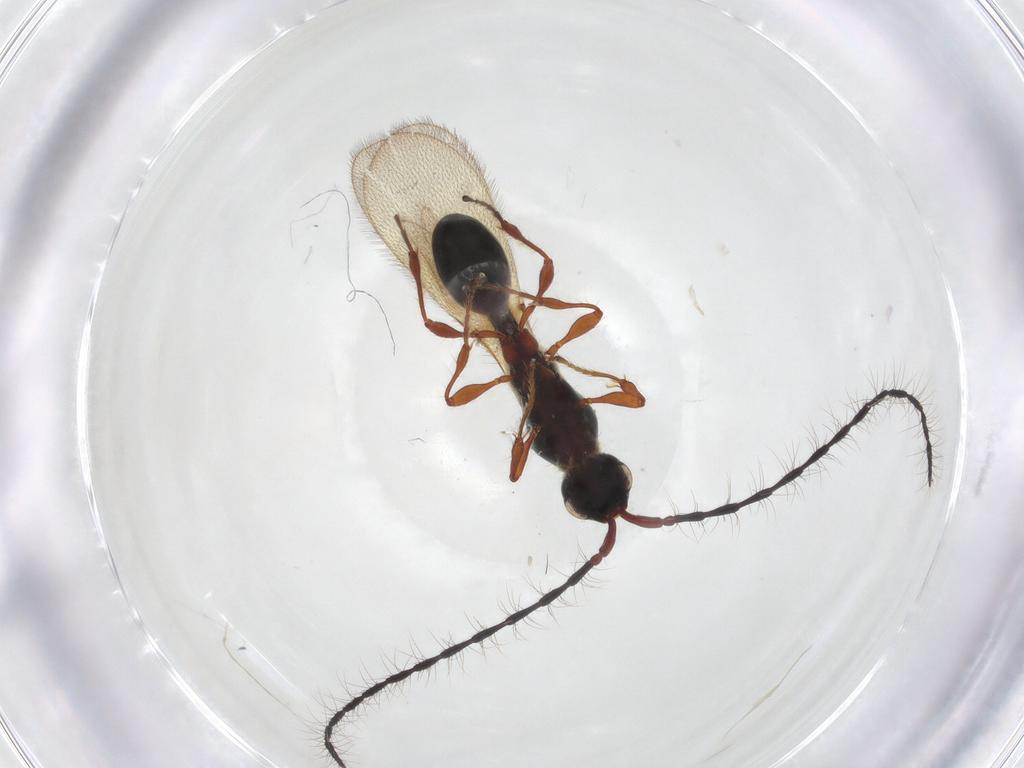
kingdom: Animalia
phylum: Arthropoda
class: Insecta
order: Hymenoptera
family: Diapriidae
